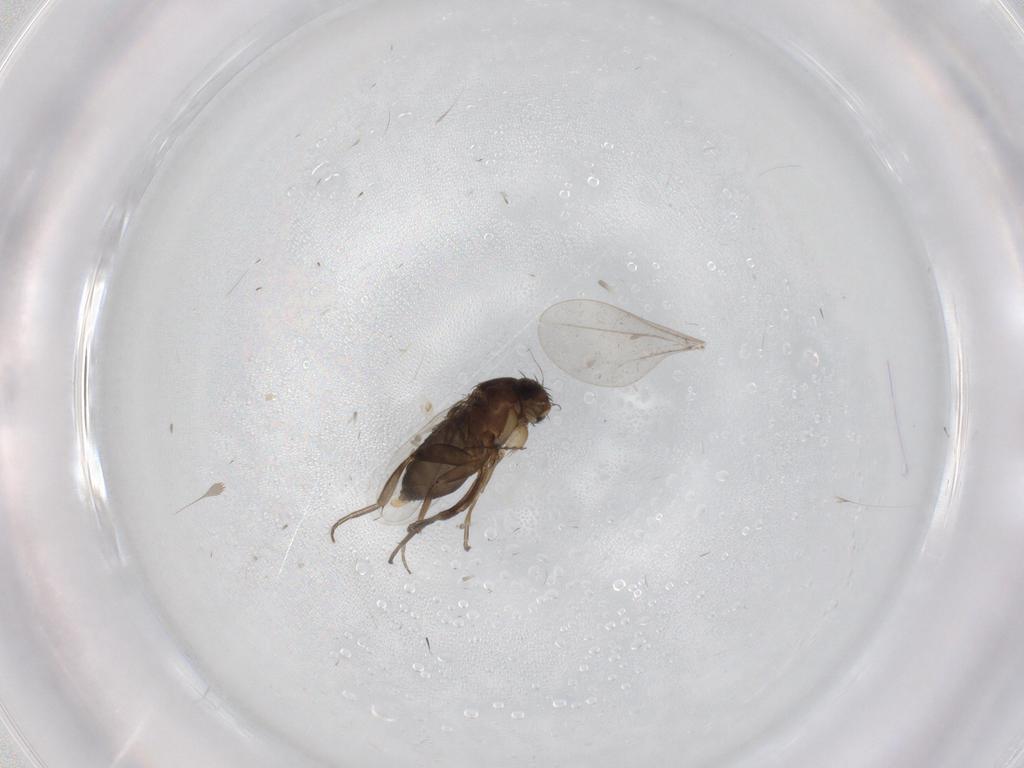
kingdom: Animalia
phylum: Arthropoda
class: Insecta
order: Diptera
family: Phoridae
